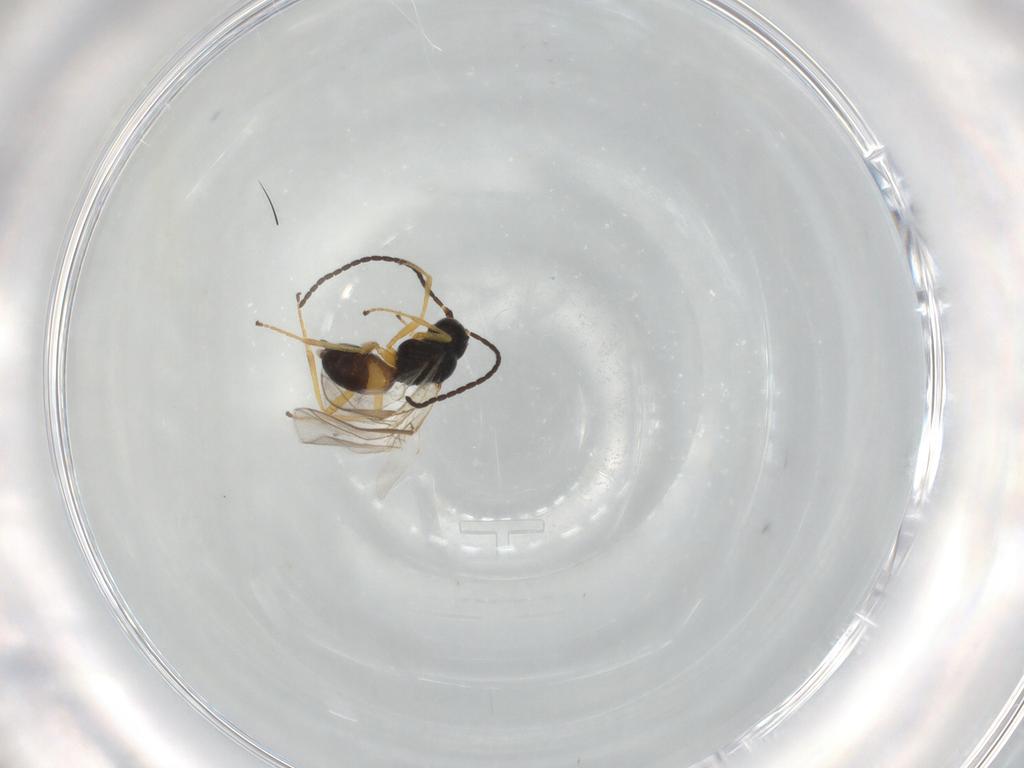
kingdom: Animalia
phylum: Arthropoda
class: Insecta
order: Hymenoptera
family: Braconidae
